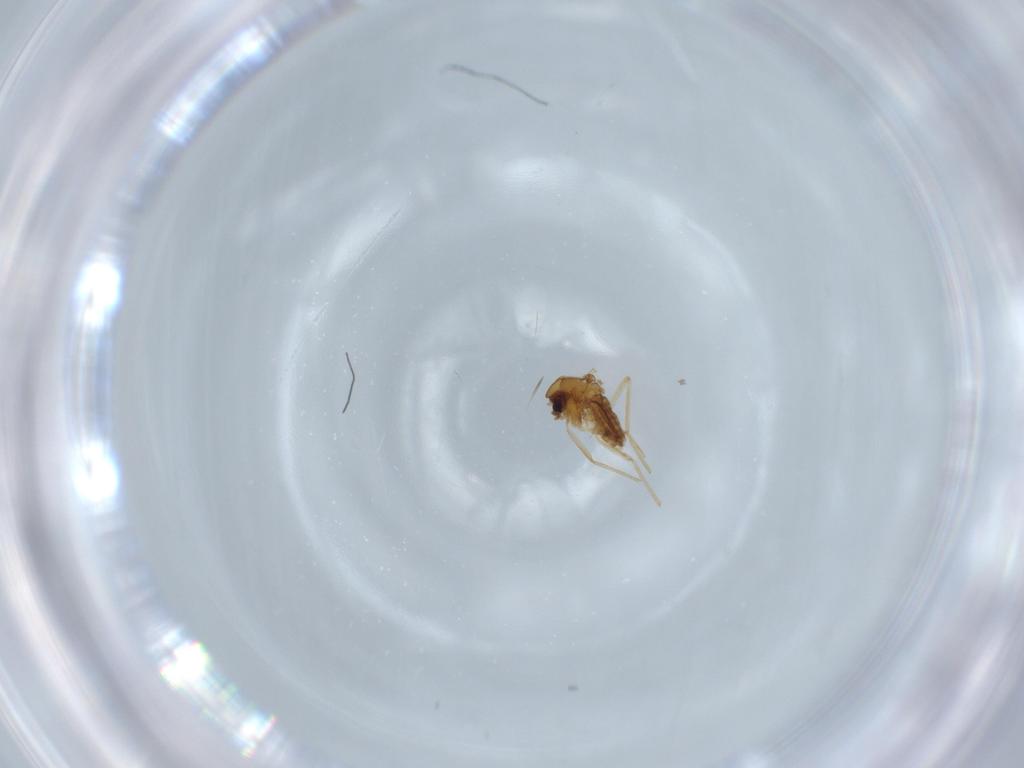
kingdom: Animalia
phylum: Arthropoda
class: Insecta
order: Diptera
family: Chironomidae
